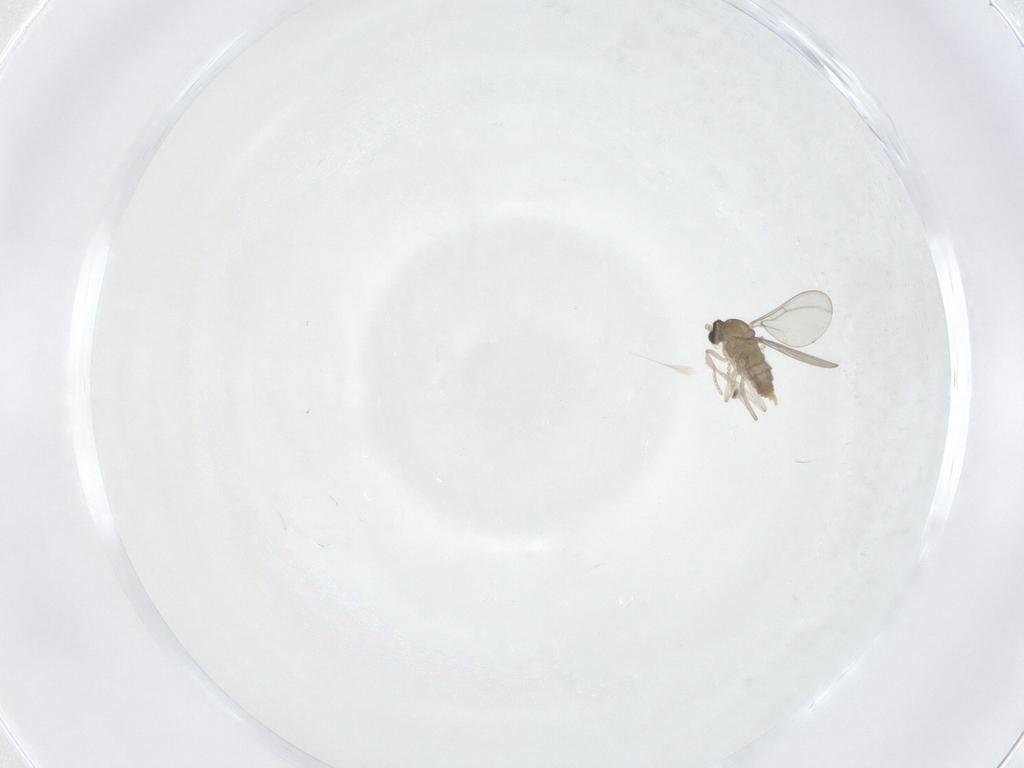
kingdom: Animalia
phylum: Arthropoda
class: Insecta
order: Diptera
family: Cecidomyiidae
